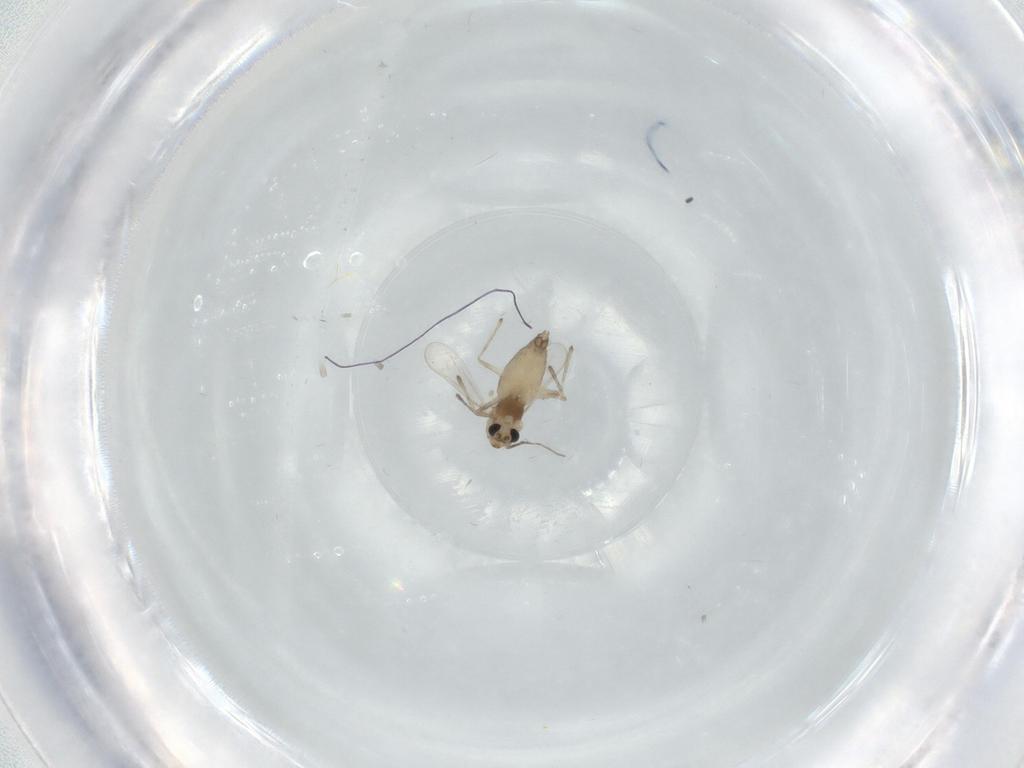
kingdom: Animalia
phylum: Arthropoda
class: Insecta
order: Diptera
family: Chironomidae
